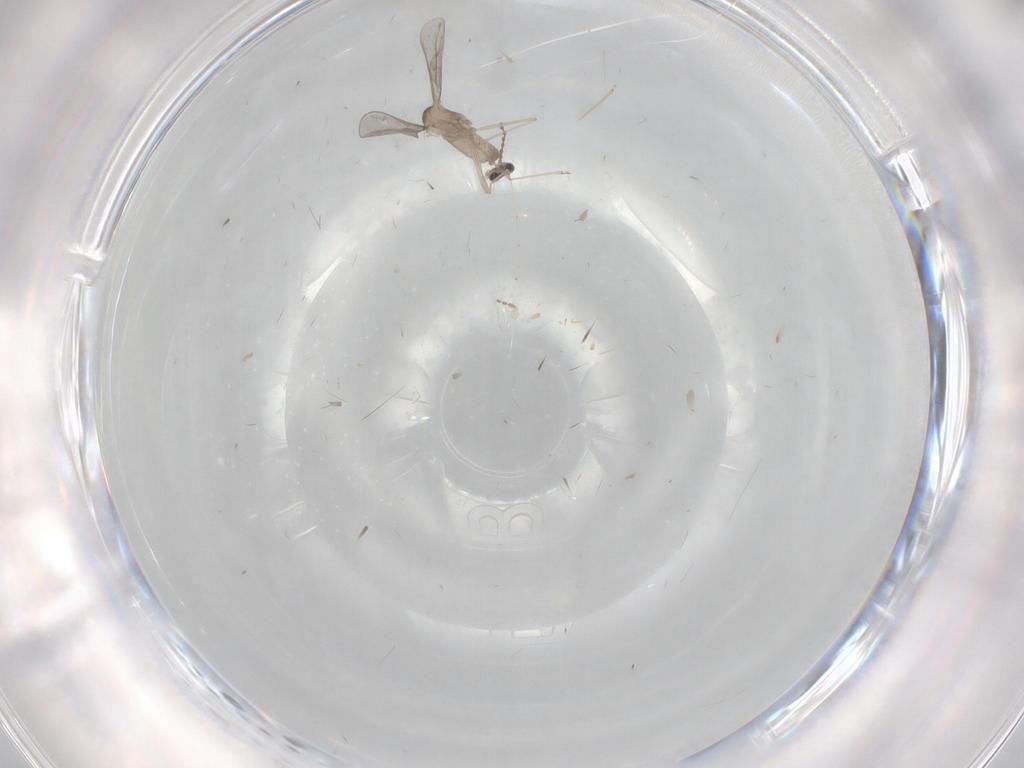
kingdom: Animalia
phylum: Arthropoda
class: Insecta
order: Diptera
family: Cecidomyiidae
